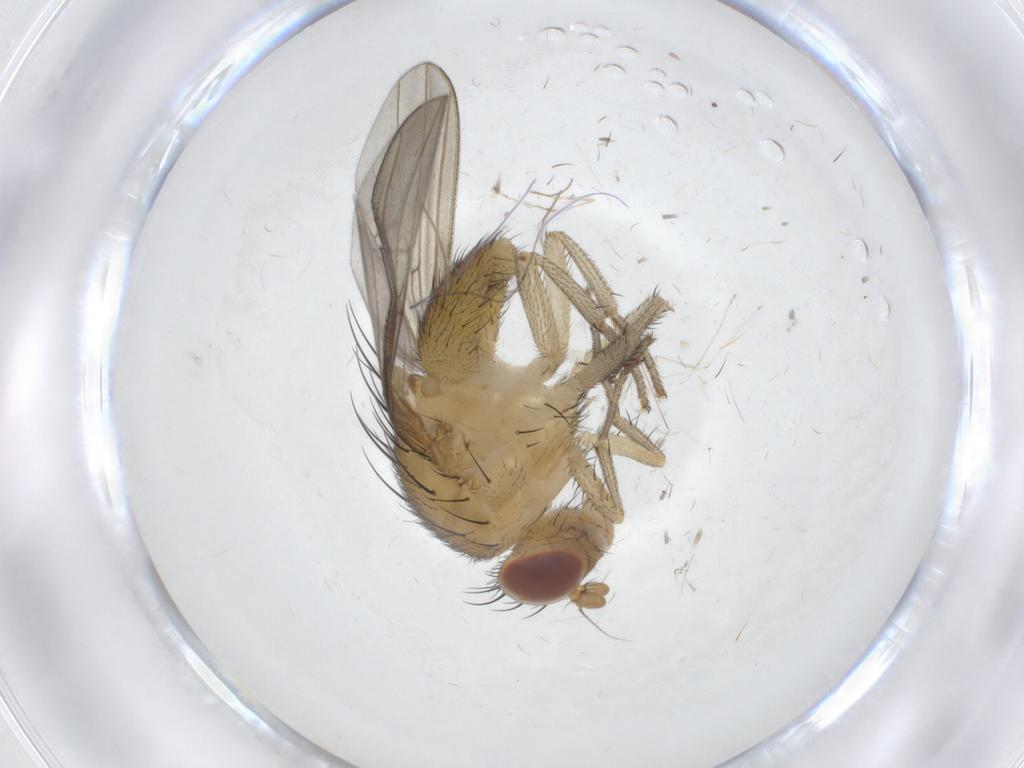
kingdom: Animalia
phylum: Arthropoda
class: Insecta
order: Diptera
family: Chironomidae
